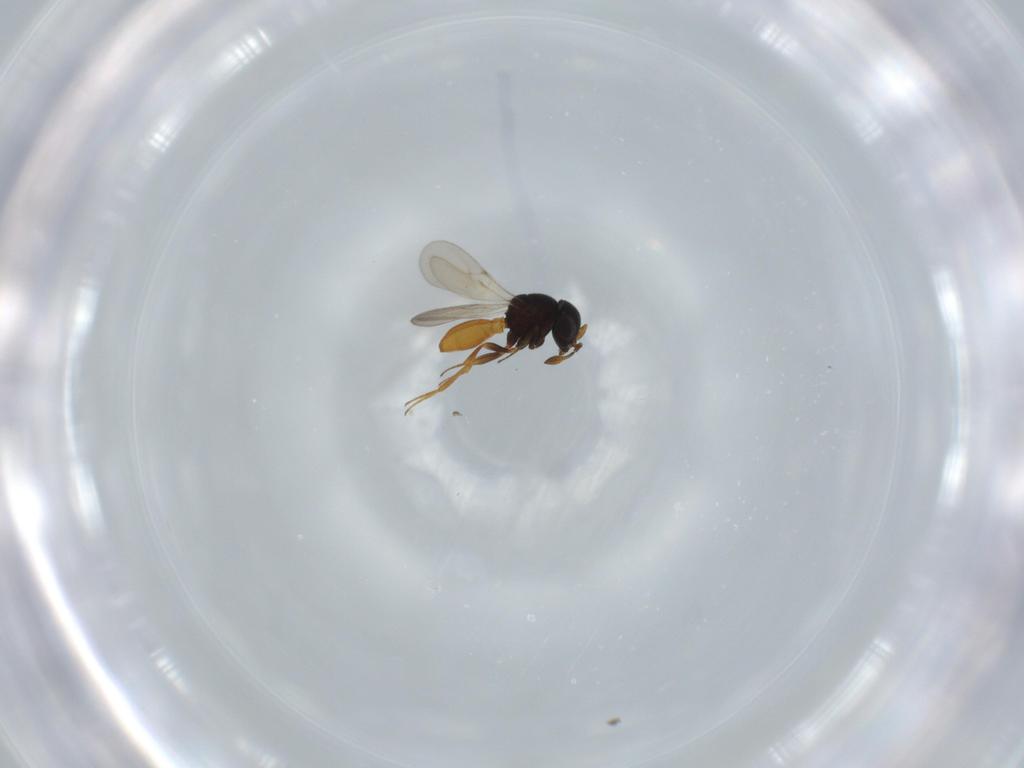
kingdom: Animalia
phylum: Arthropoda
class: Insecta
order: Hymenoptera
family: Scelionidae
